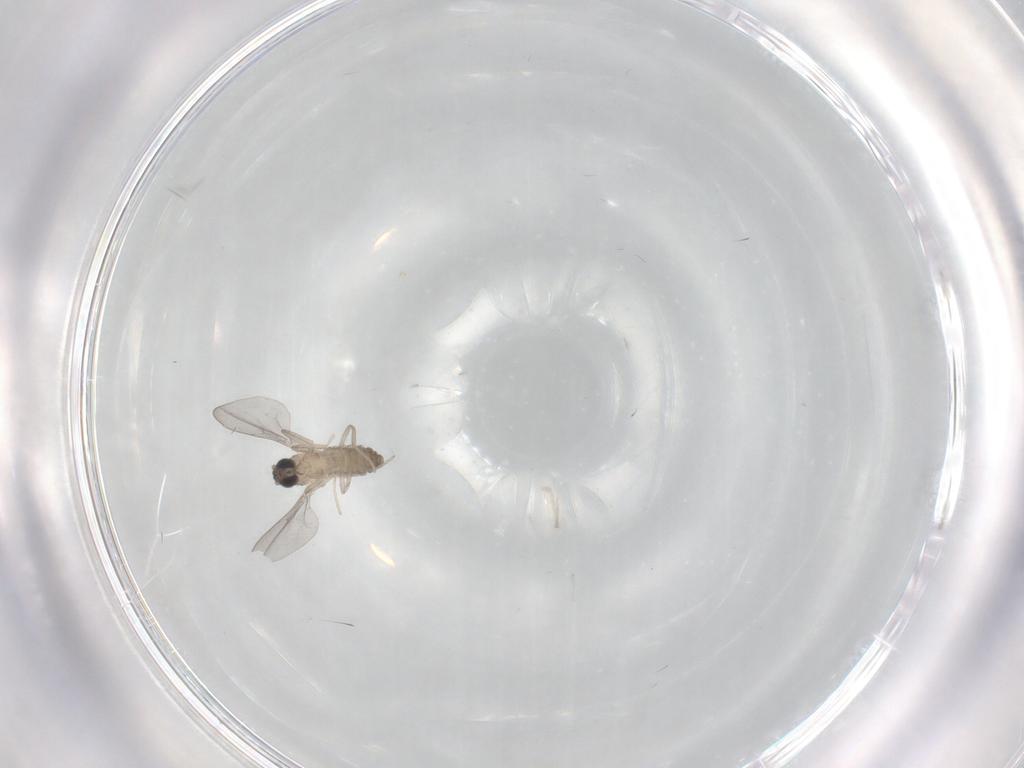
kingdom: Animalia
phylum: Arthropoda
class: Insecta
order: Diptera
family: Cecidomyiidae
